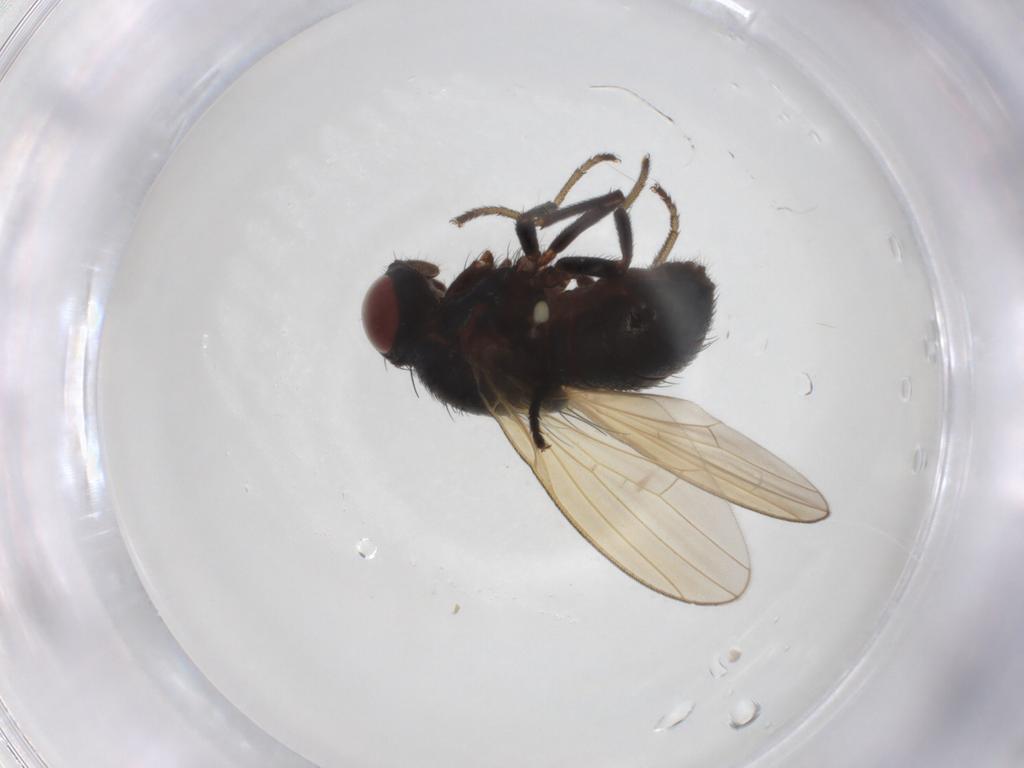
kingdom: Animalia
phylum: Arthropoda
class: Insecta
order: Diptera
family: Dolichopodidae
